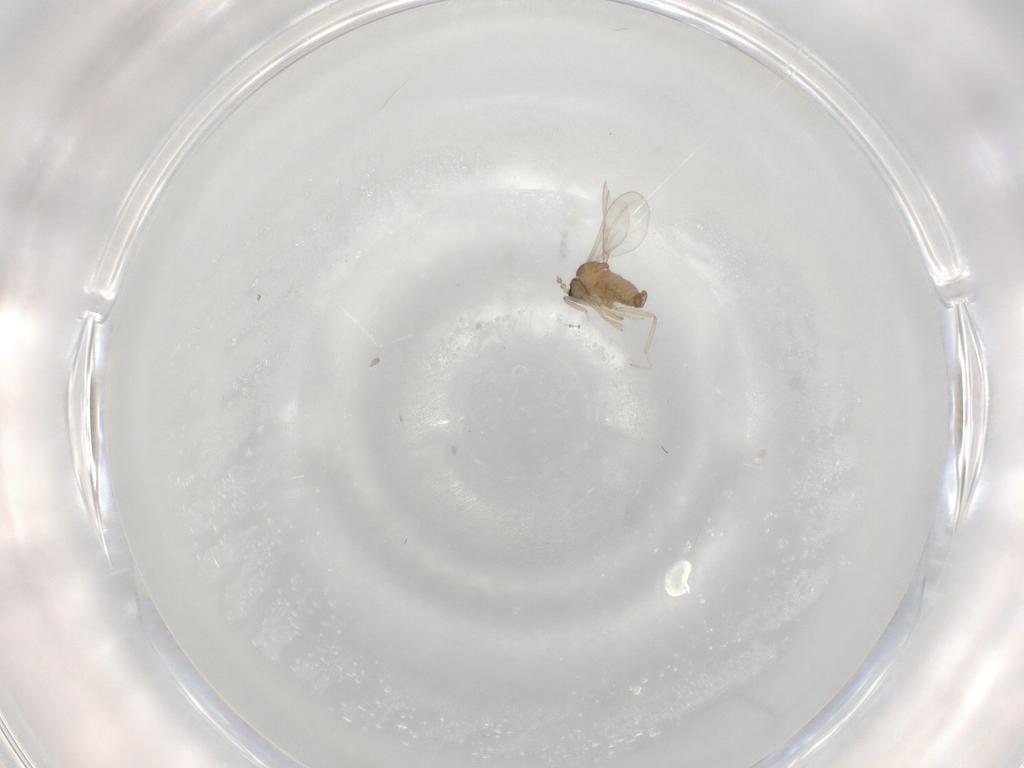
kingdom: Animalia
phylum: Arthropoda
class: Insecta
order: Diptera
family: Cecidomyiidae
